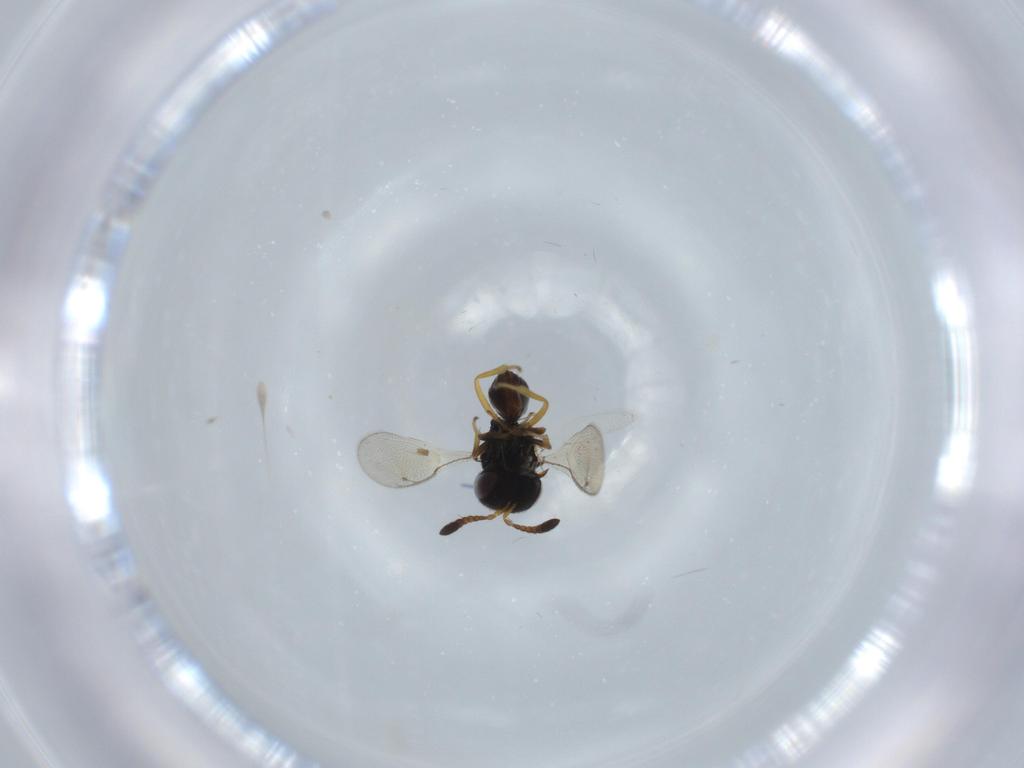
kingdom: Animalia
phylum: Arthropoda
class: Insecta
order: Hymenoptera
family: Pteromalidae
